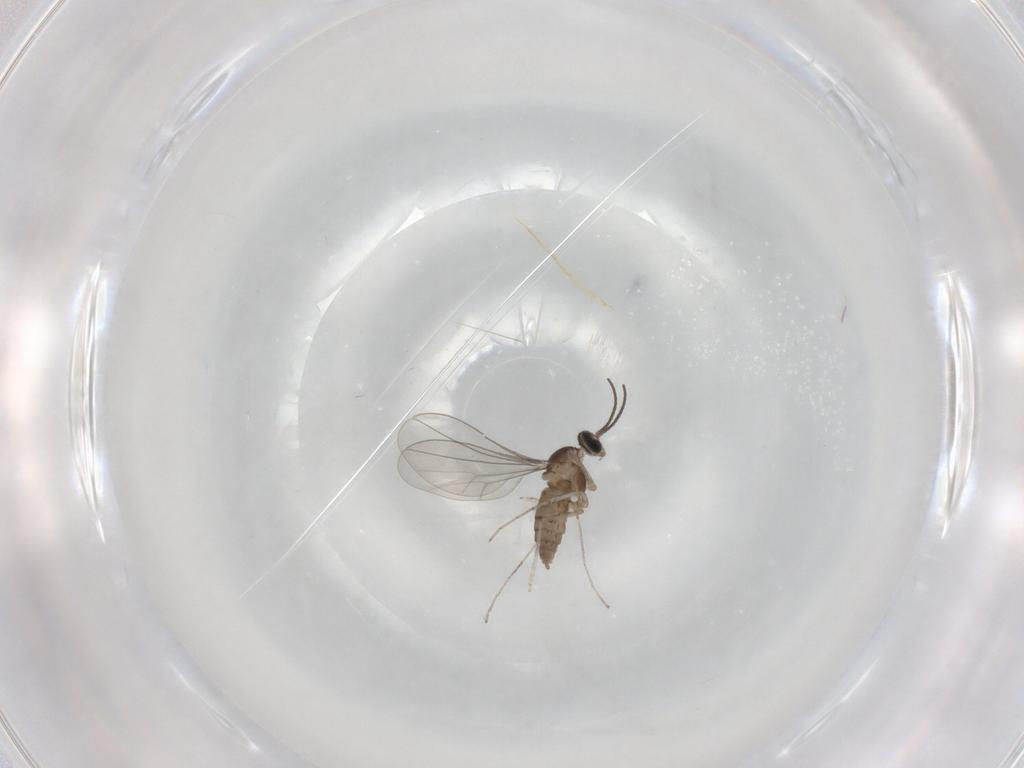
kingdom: Animalia
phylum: Arthropoda
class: Insecta
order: Diptera
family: Cecidomyiidae
